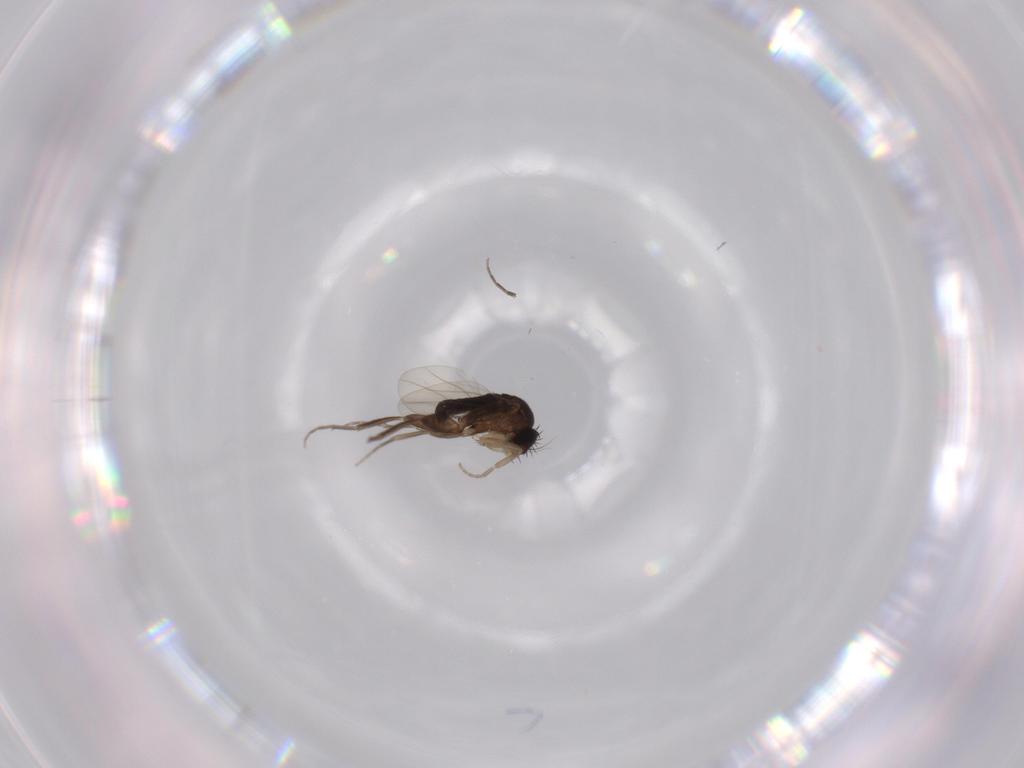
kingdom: Animalia
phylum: Arthropoda
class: Insecta
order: Diptera
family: Phoridae
